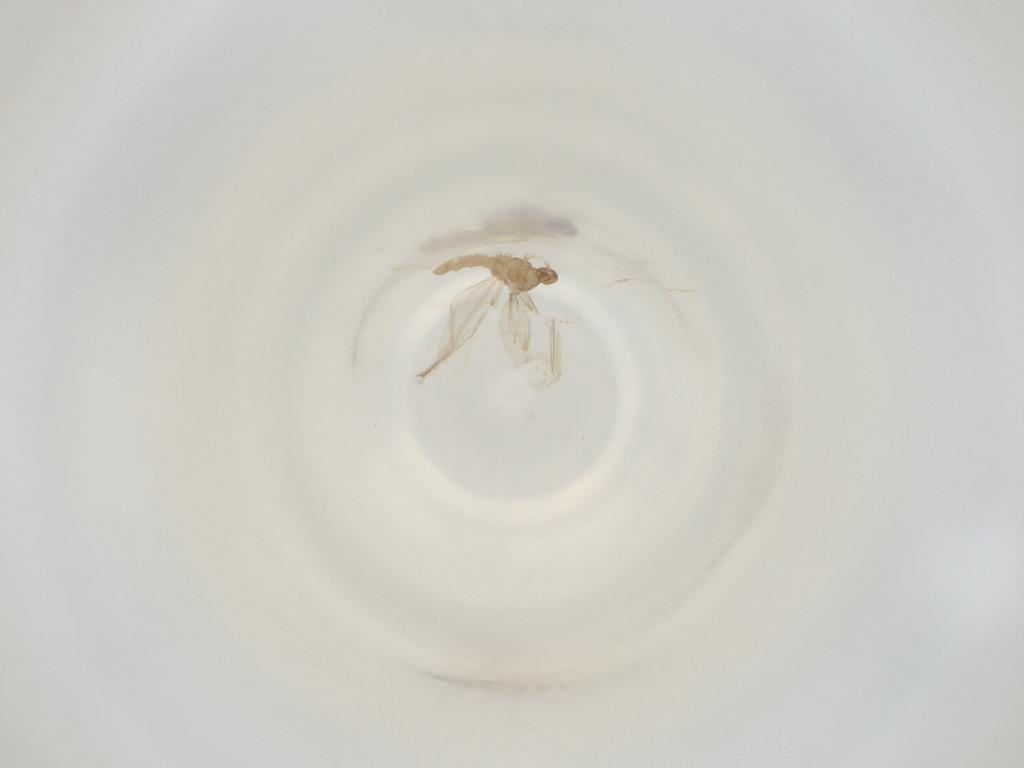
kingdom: Animalia
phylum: Arthropoda
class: Insecta
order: Diptera
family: Cecidomyiidae
